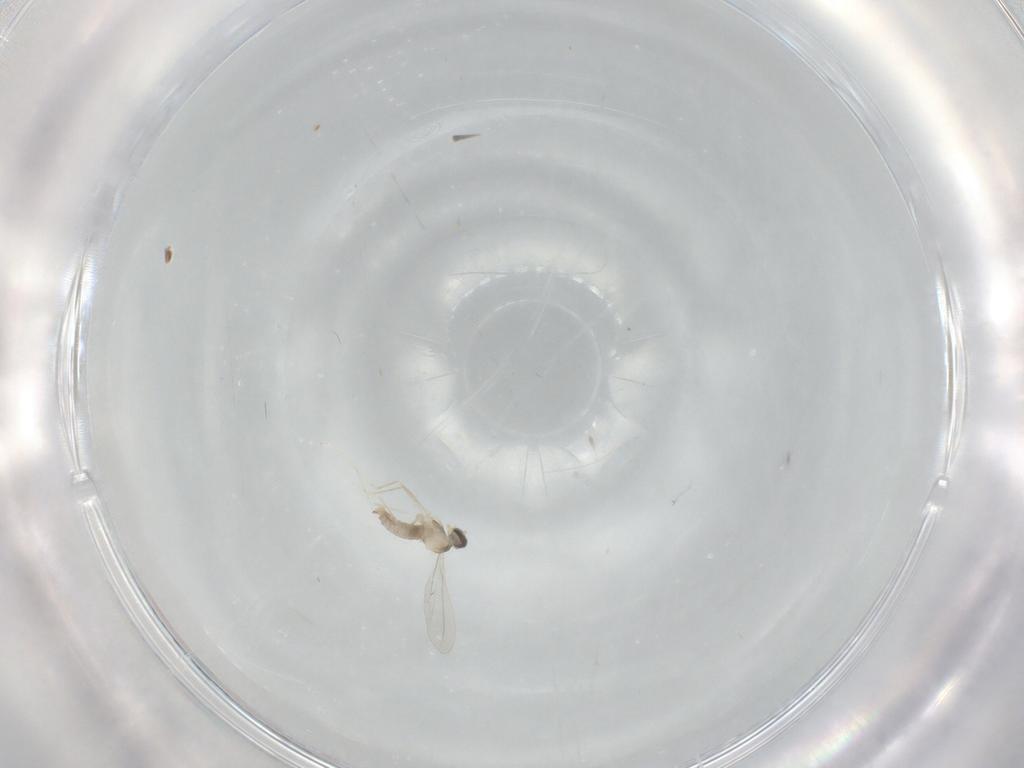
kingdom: Animalia
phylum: Arthropoda
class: Insecta
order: Diptera
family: Cecidomyiidae
